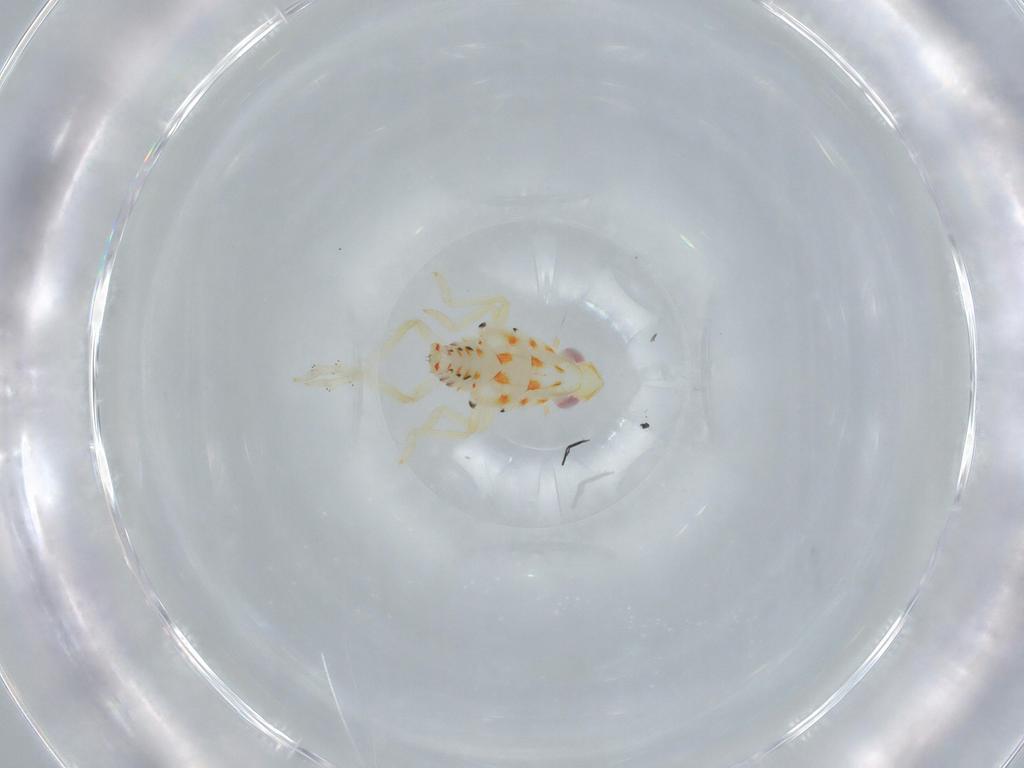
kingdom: Animalia
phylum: Arthropoda
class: Insecta
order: Hemiptera
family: Tropiduchidae
